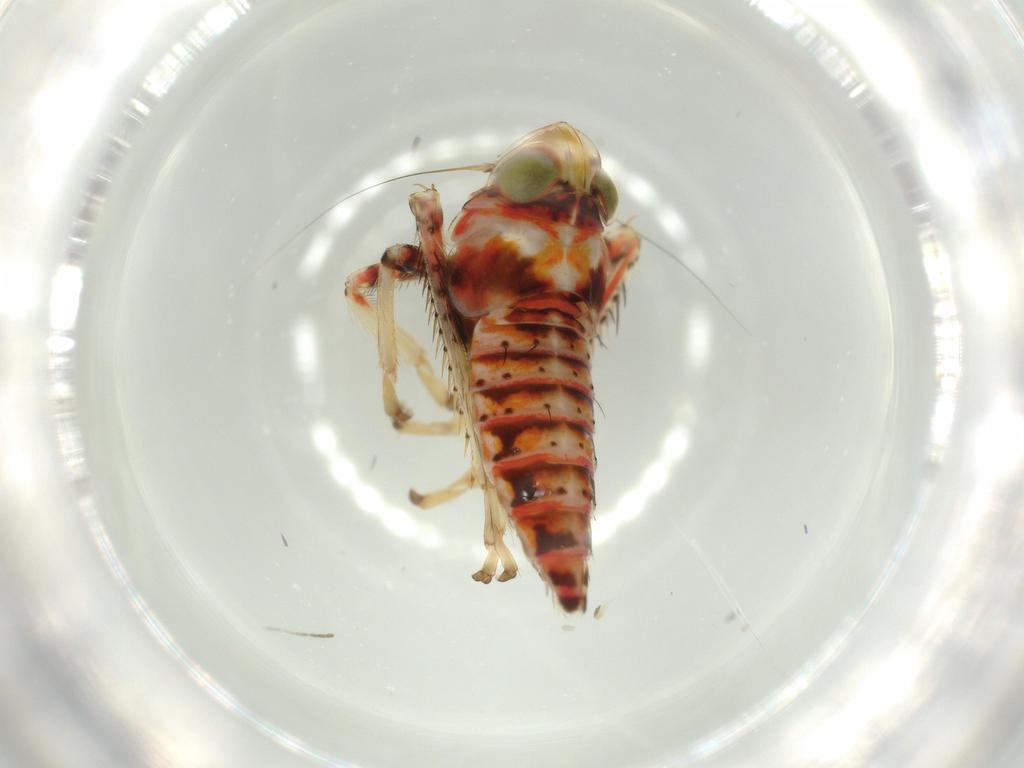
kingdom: Animalia
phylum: Arthropoda
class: Insecta
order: Hemiptera
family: Cicadellidae
